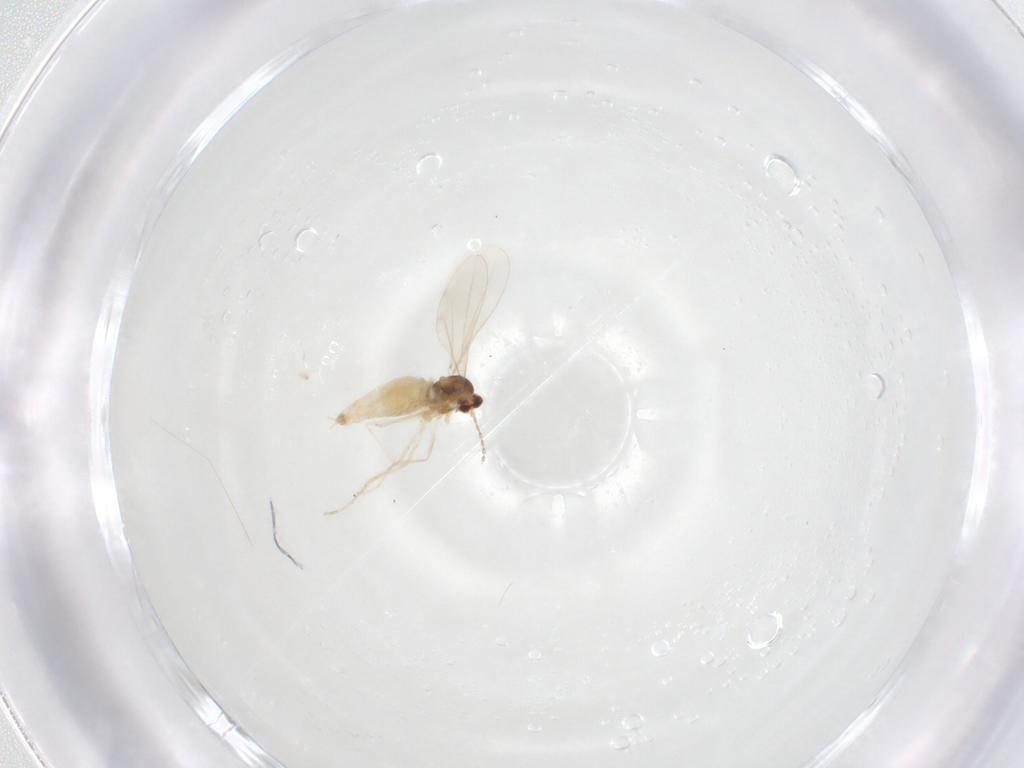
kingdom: Animalia
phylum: Arthropoda
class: Insecta
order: Diptera
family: Cecidomyiidae
